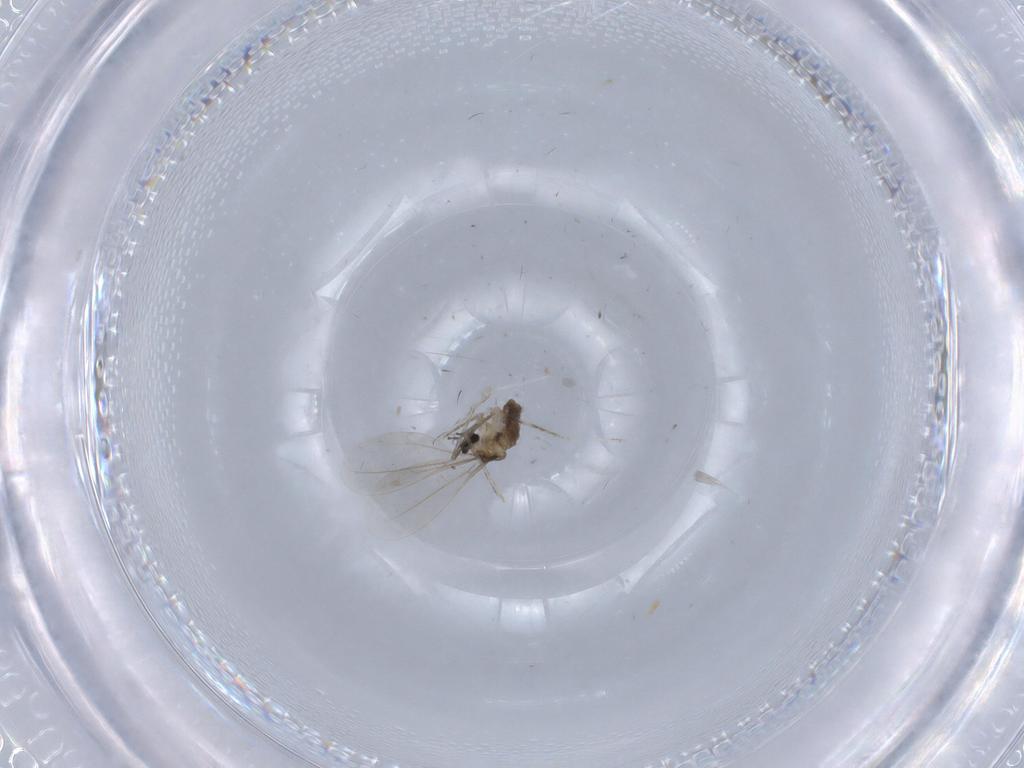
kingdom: Animalia
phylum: Arthropoda
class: Insecta
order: Diptera
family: Cecidomyiidae
